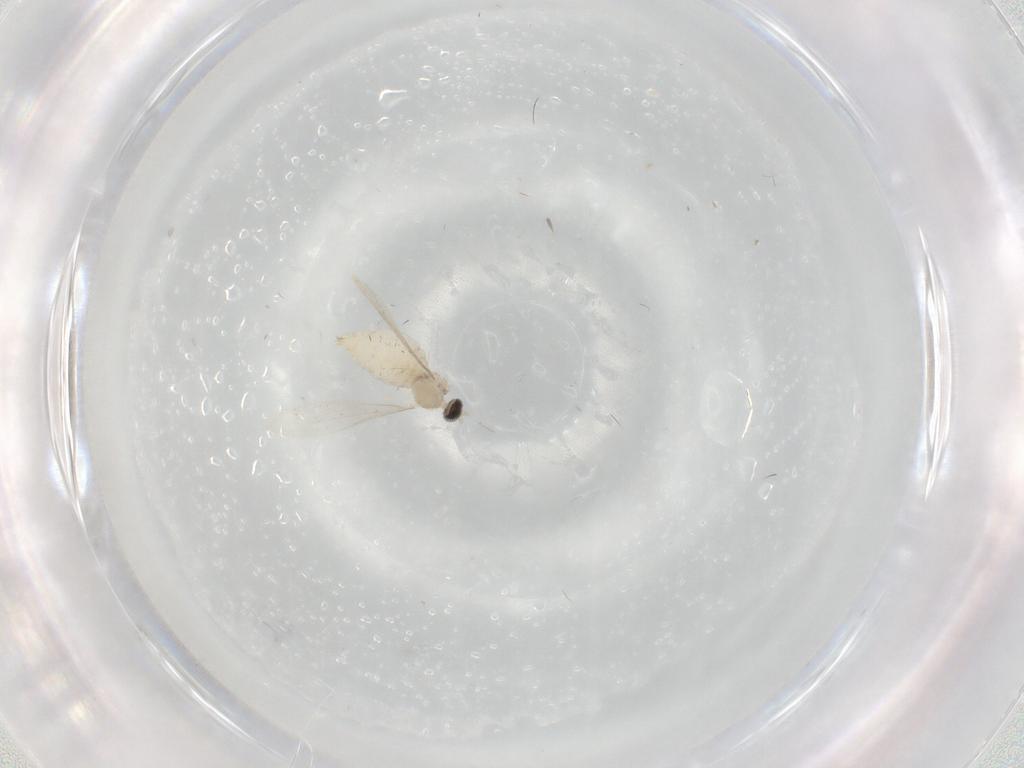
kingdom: Animalia
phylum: Arthropoda
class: Insecta
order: Diptera
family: Cecidomyiidae
